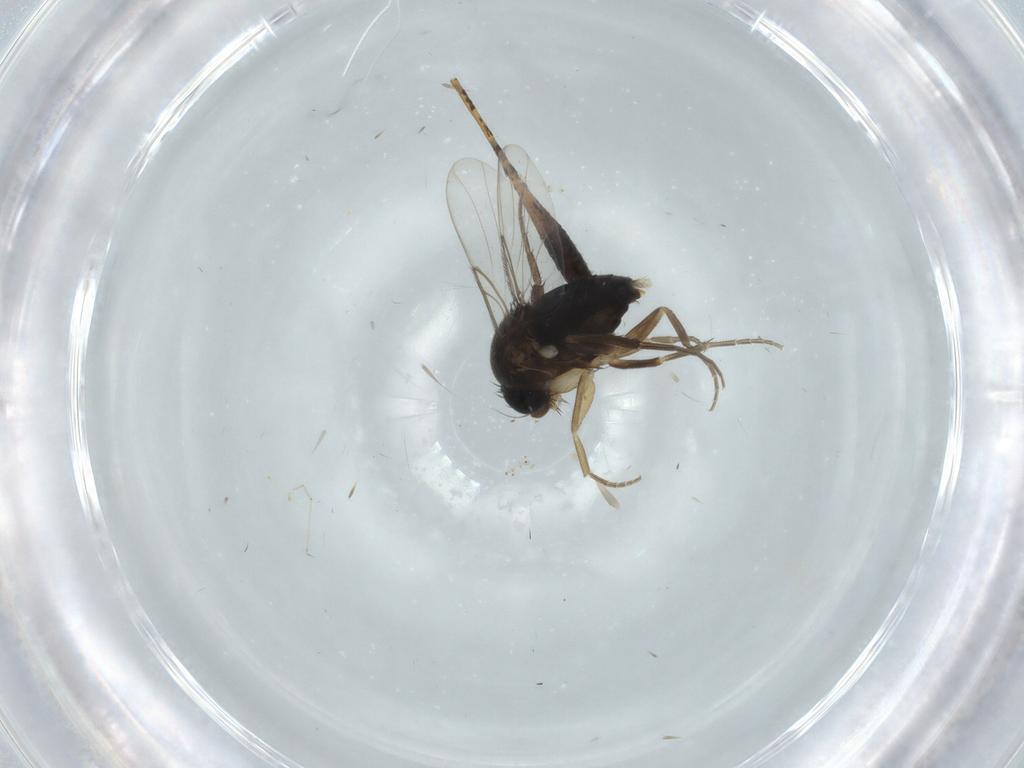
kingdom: Animalia
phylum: Arthropoda
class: Insecta
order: Diptera
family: Phoridae
